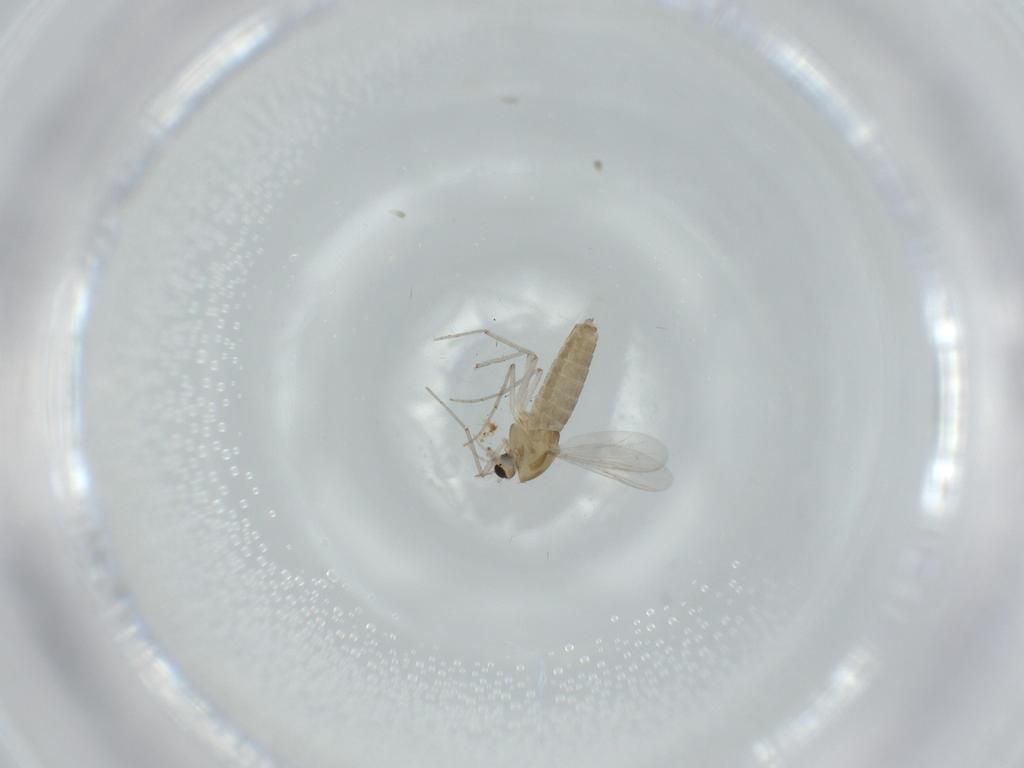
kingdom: Animalia
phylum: Arthropoda
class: Insecta
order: Diptera
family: Chironomidae
